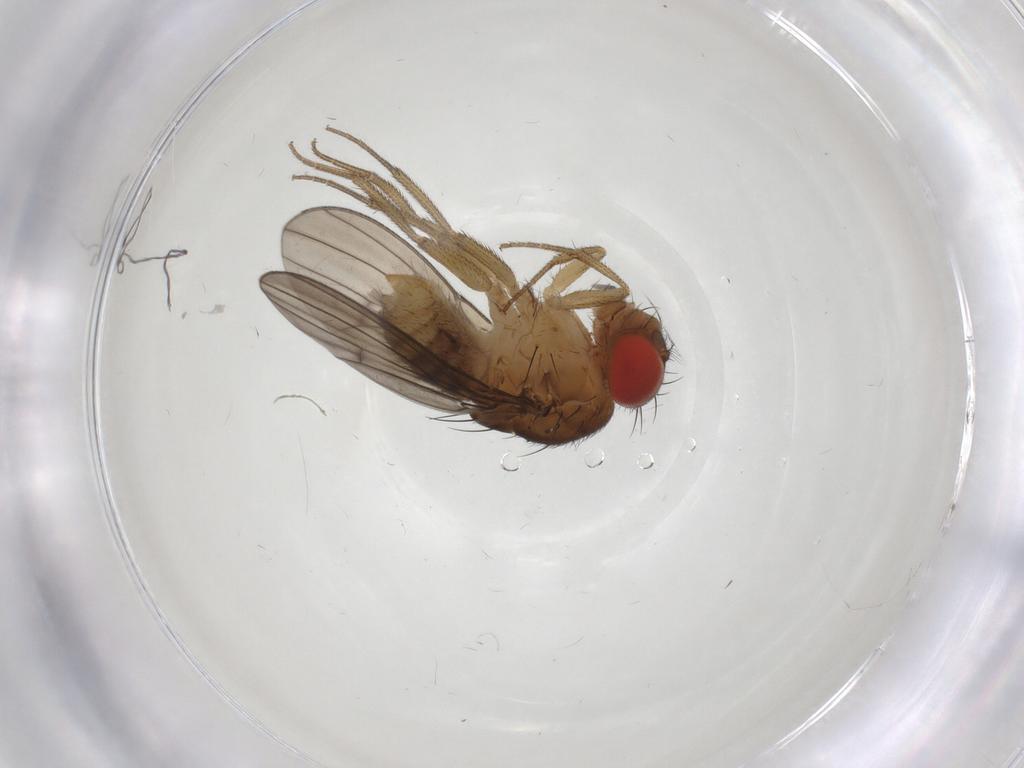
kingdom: Animalia
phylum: Arthropoda
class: Insecta
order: Diptera
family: Drosophilidae
